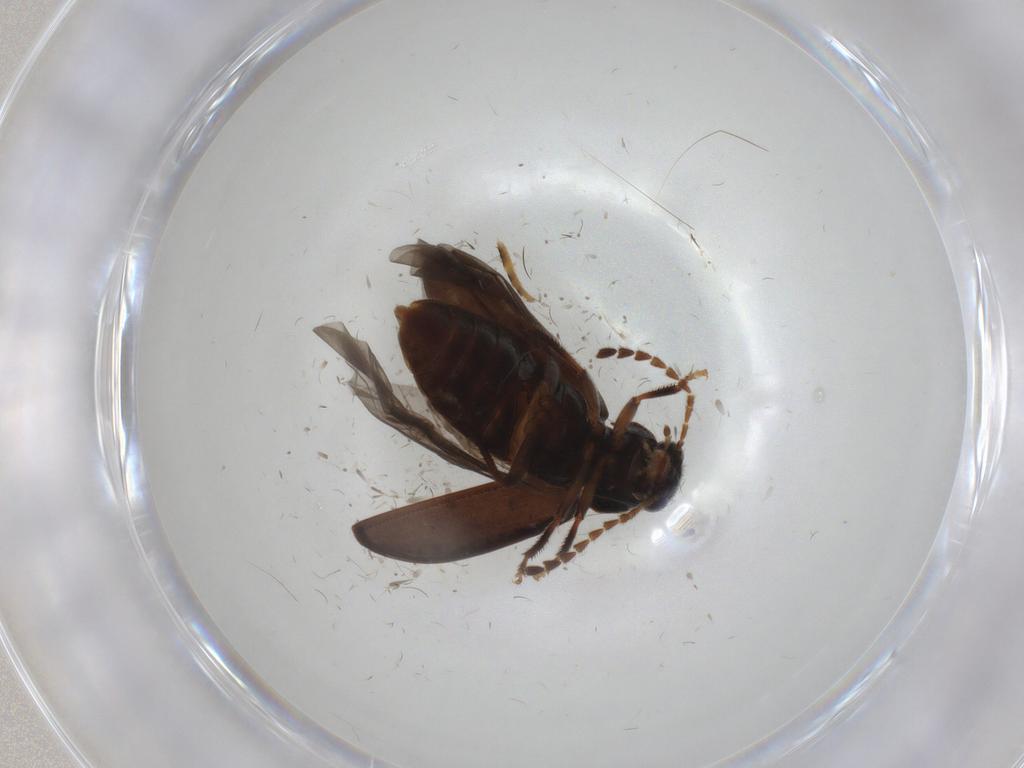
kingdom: Animalia
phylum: Arthropoda
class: Insecta
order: Coleoptera
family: Ptilodactylidae
